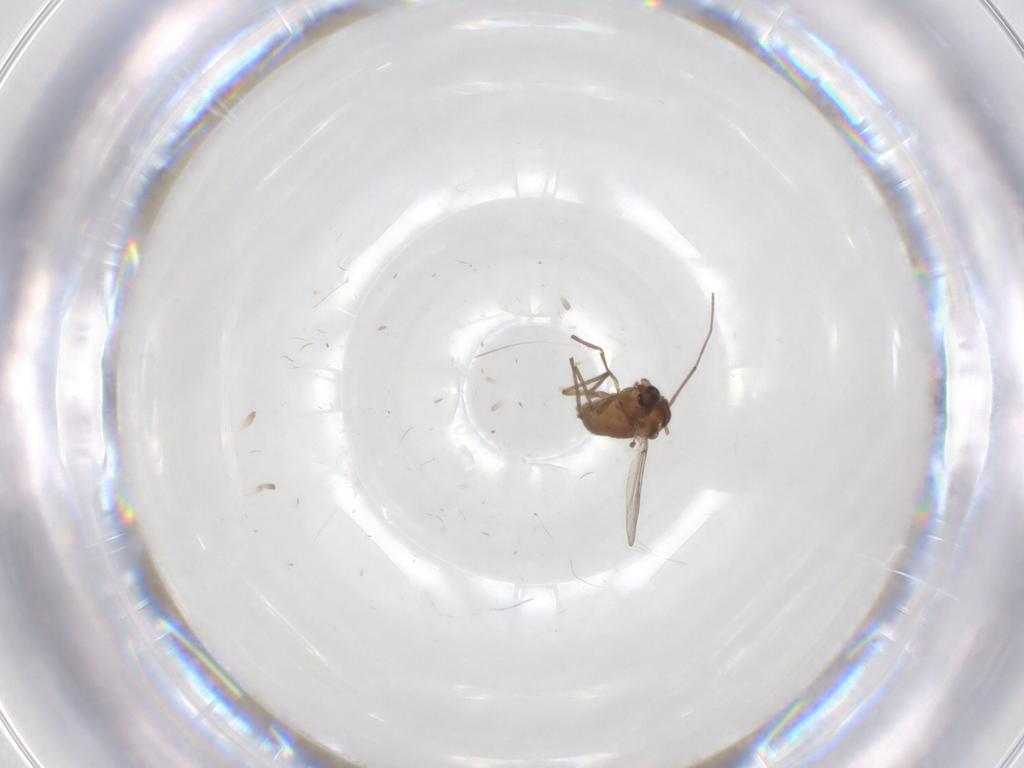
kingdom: Animalia
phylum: Arthropoda
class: Insecta
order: Diptera
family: Chironomidae
